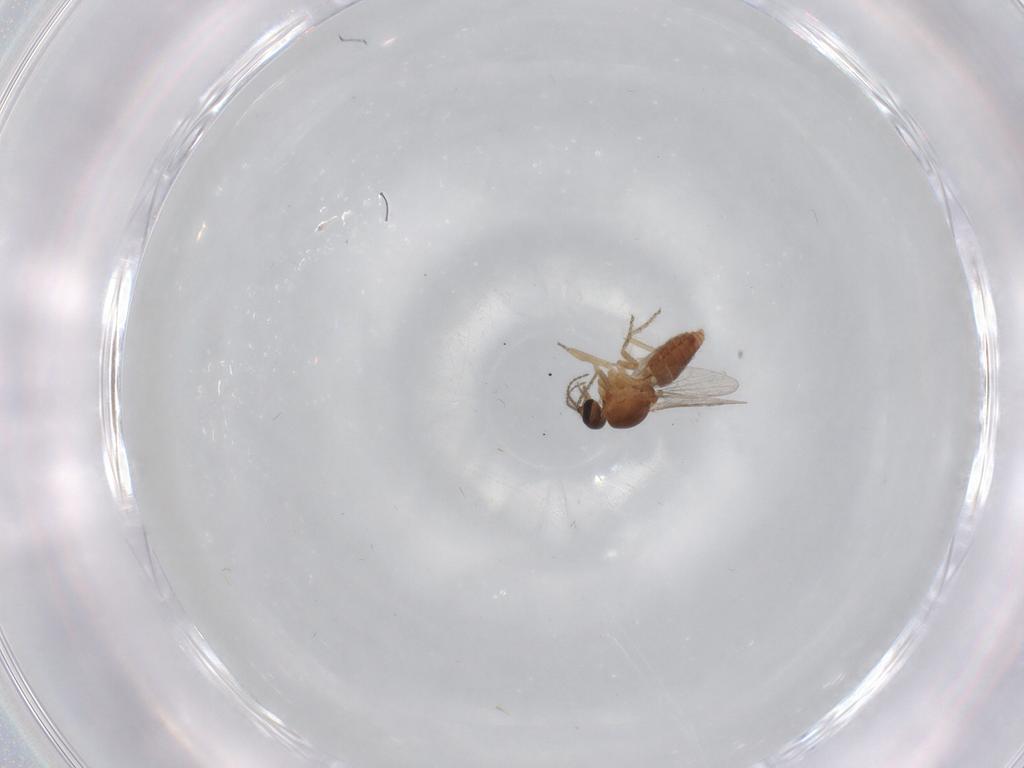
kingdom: Animalia
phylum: Arthropoda
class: Insecta
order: Diptera
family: Ceratopogonidae
